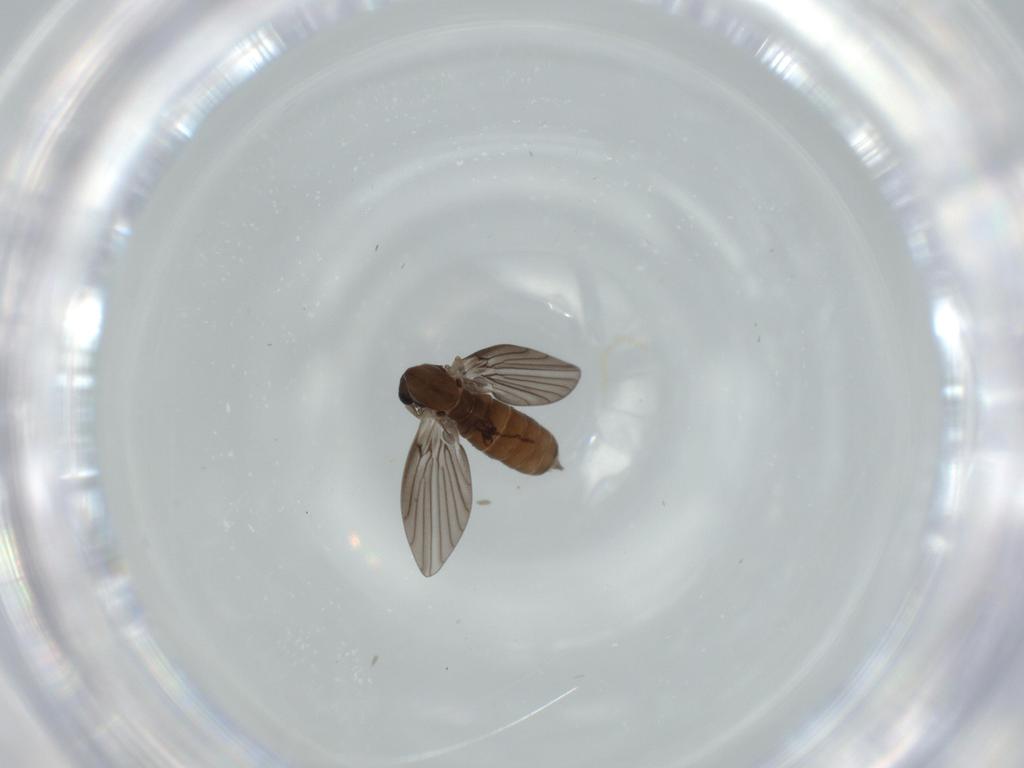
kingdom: Animalia
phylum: Arthropoda
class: Insecta
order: Diptera
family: Psychodidae
